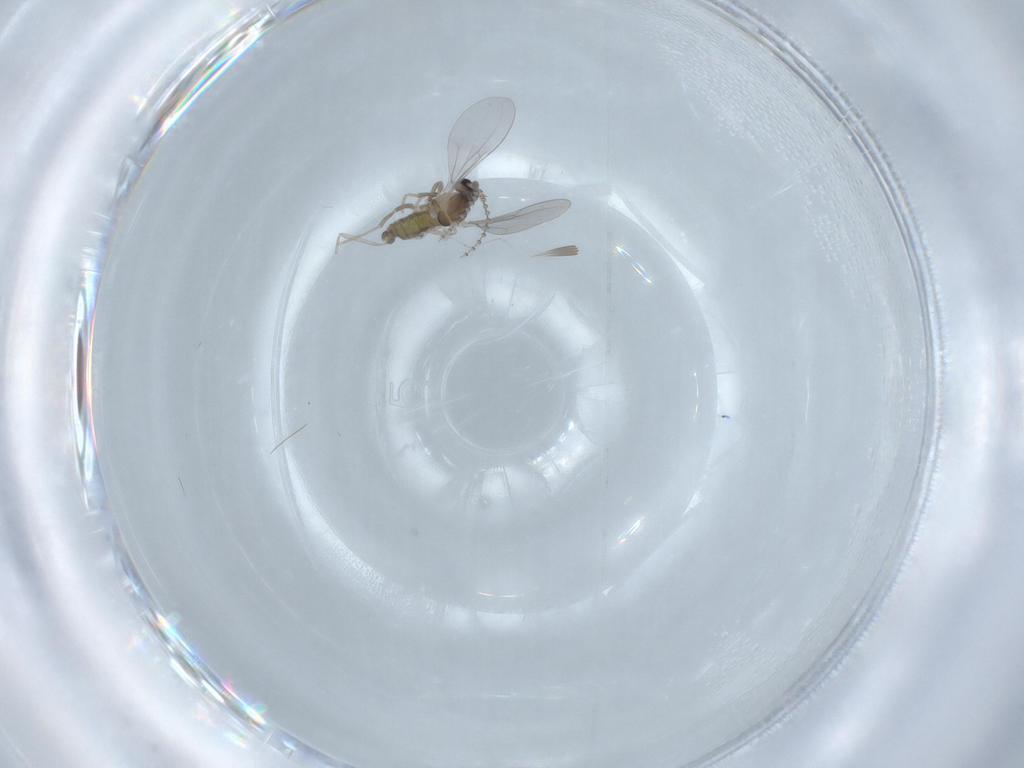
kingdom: Animalia
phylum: Arthropoda
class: Insecta
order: Diptera
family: Cecidomyiidae
